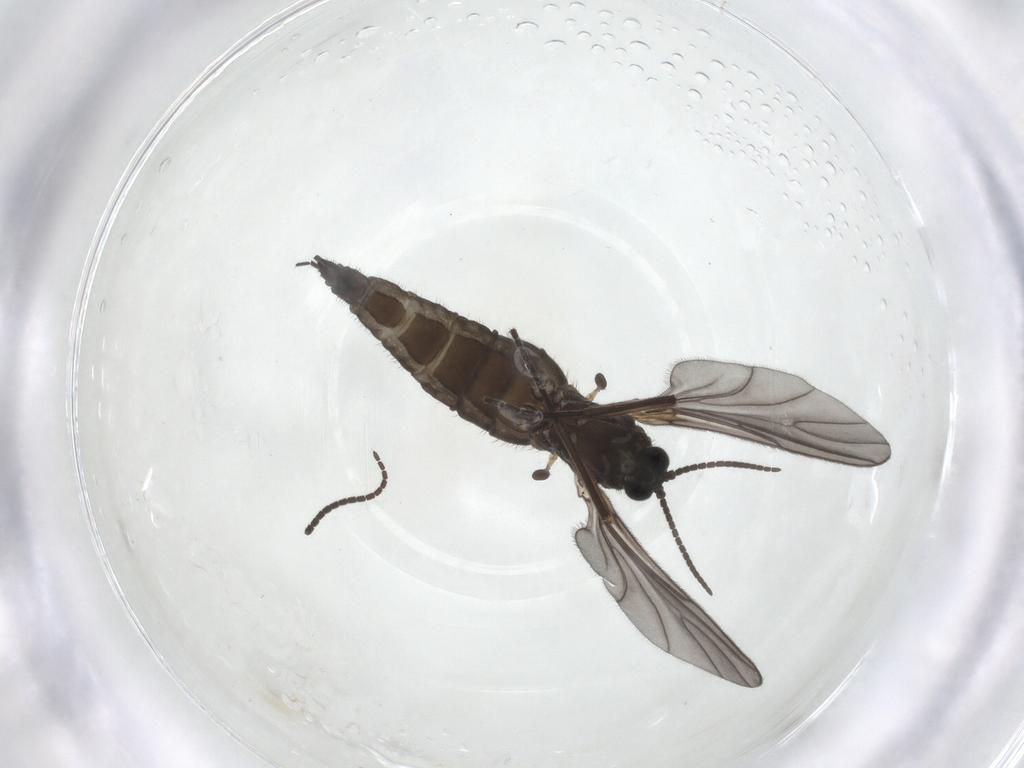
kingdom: Animalia
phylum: Arthropoda
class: Insecta
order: Diptera
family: Sciaridae
